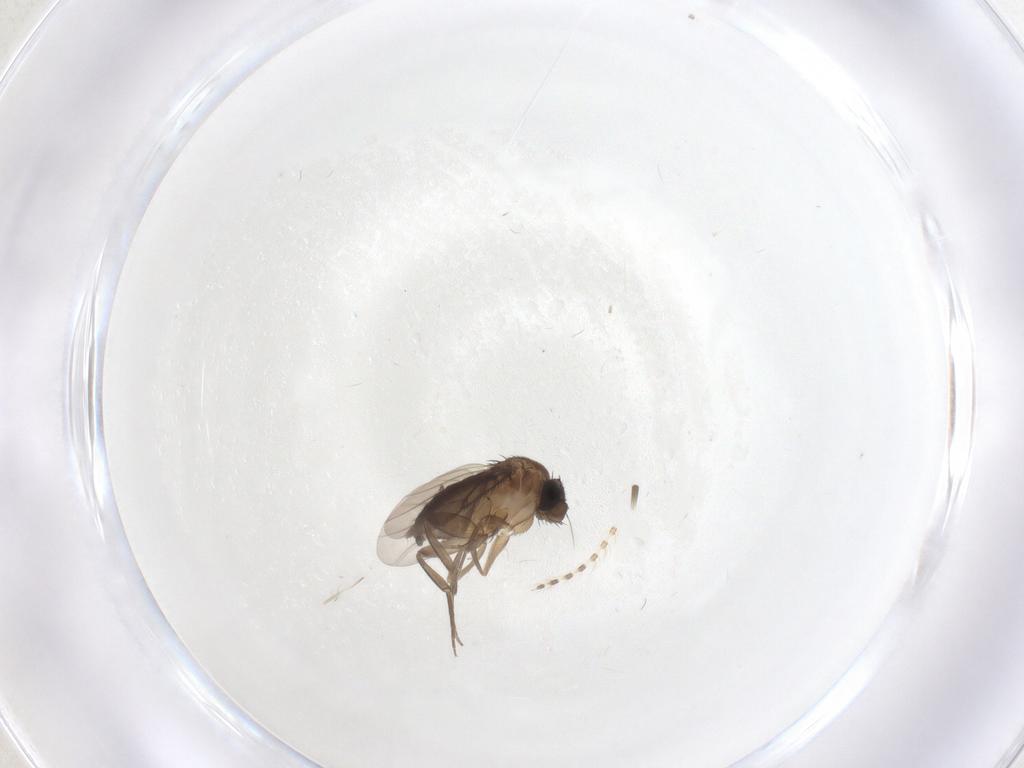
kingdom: Animalia
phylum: Arthropoda
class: Insecta
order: Diptera
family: Phoridae
